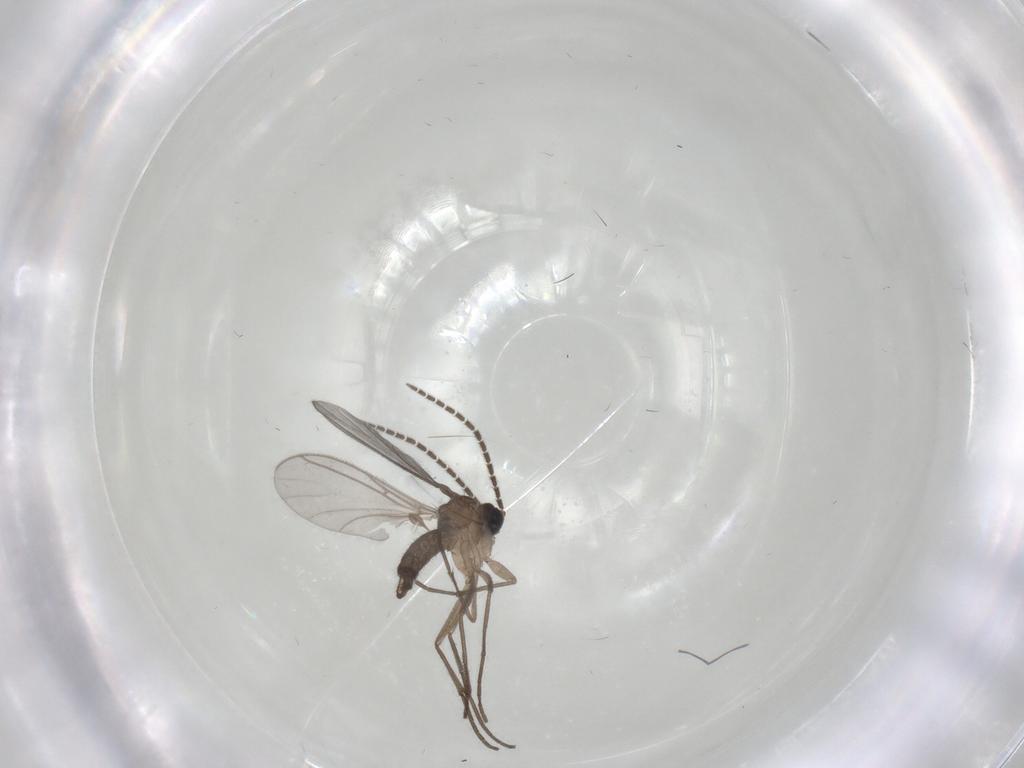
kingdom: Animalia
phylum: Arthropoda
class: Insecta
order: Diptera
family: Sciaridae
